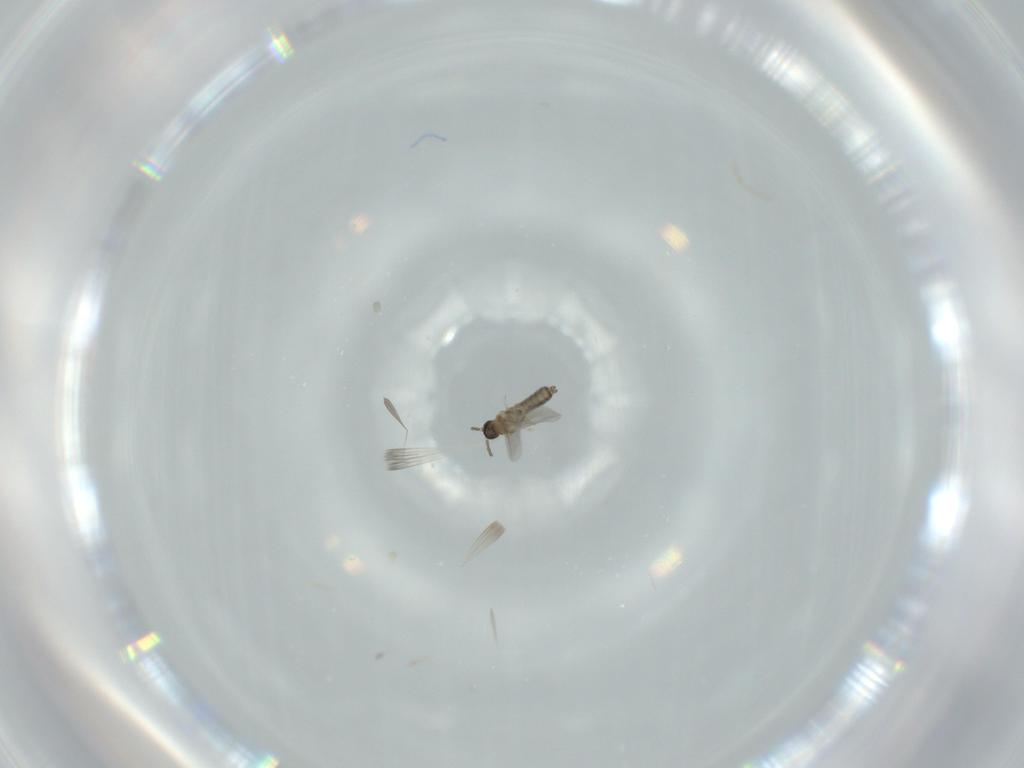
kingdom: Animalia
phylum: Arthropoda
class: Insecta
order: Diptera
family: Cecidomyiidae
